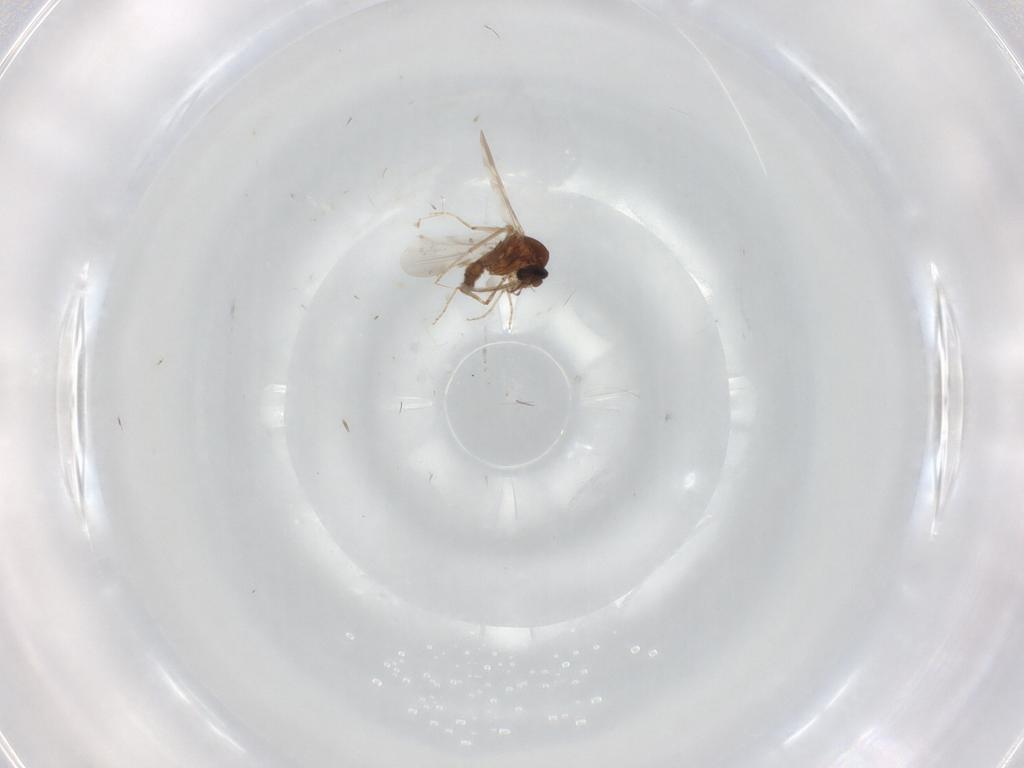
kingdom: Animalia
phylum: Arthropoda
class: Insecta
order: Diptera
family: Ceratopogonidae
